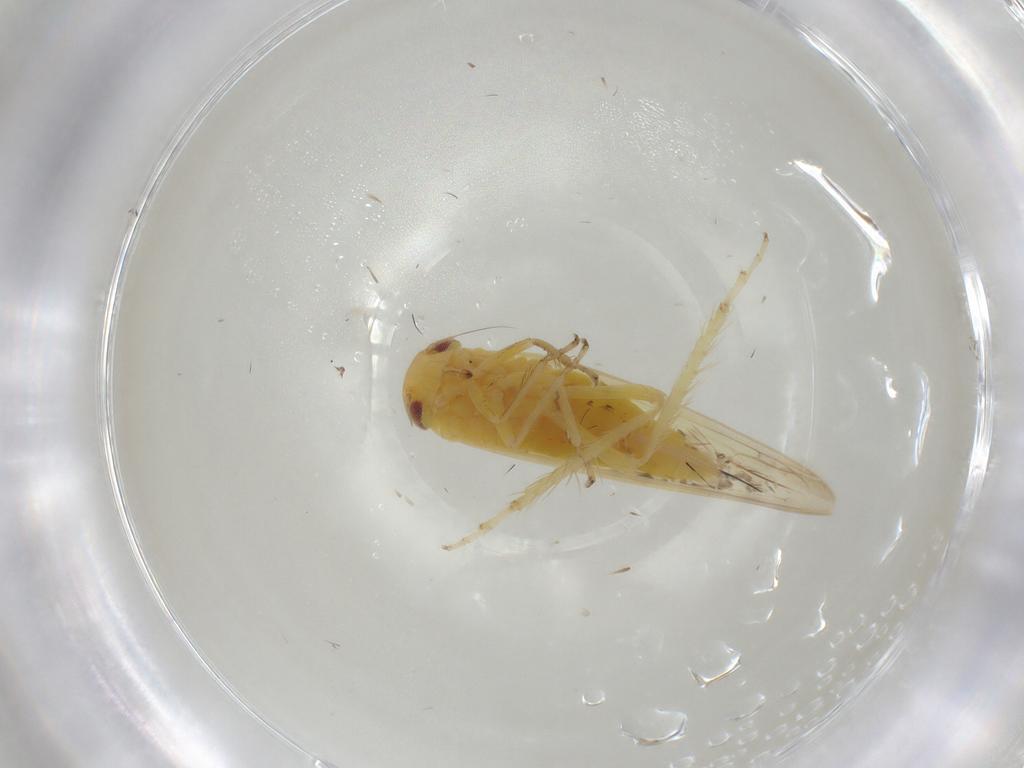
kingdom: Animalia
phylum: Arthropoda
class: Insecta
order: Hemiptera
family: Cicadellidae
